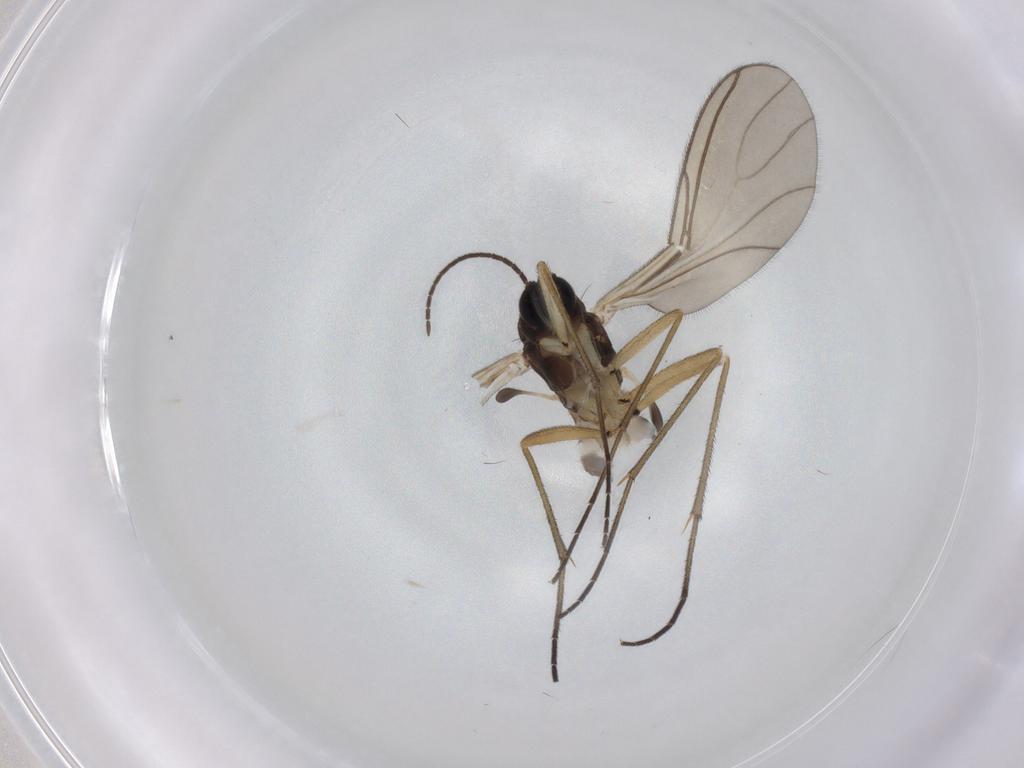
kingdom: Animalia
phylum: Arthropoda
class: Insecta
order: Diptera
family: Sciaridae
